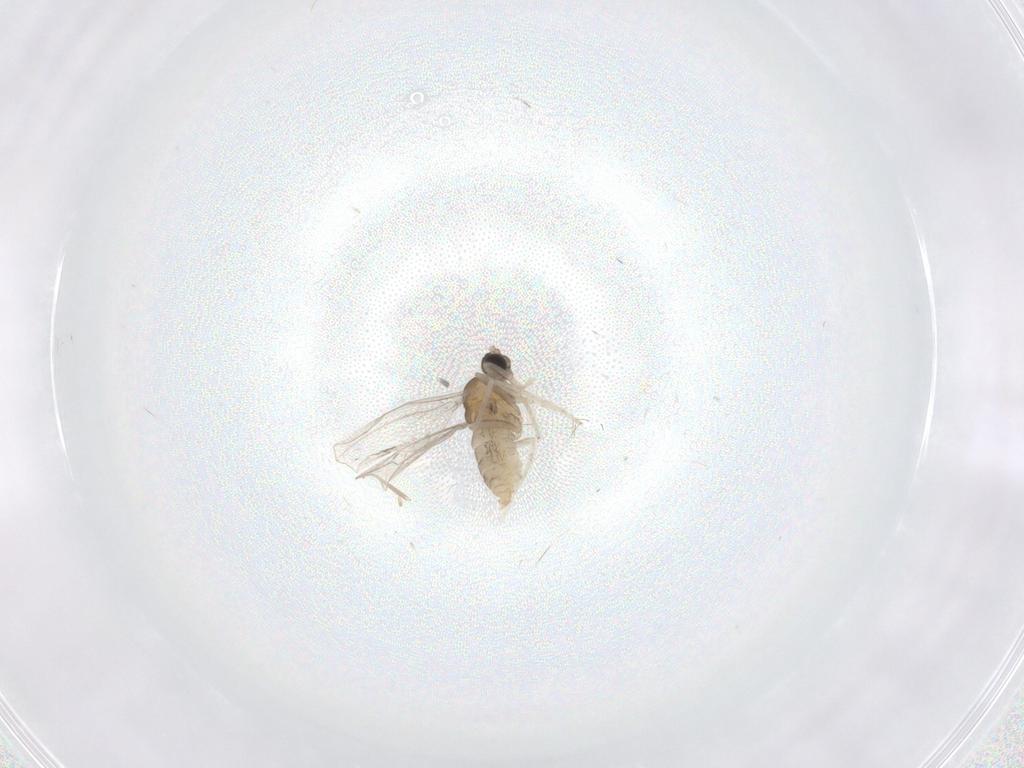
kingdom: Animalia
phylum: Arthropoda
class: Insecta
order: Diptera
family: Cecidomyiidae
